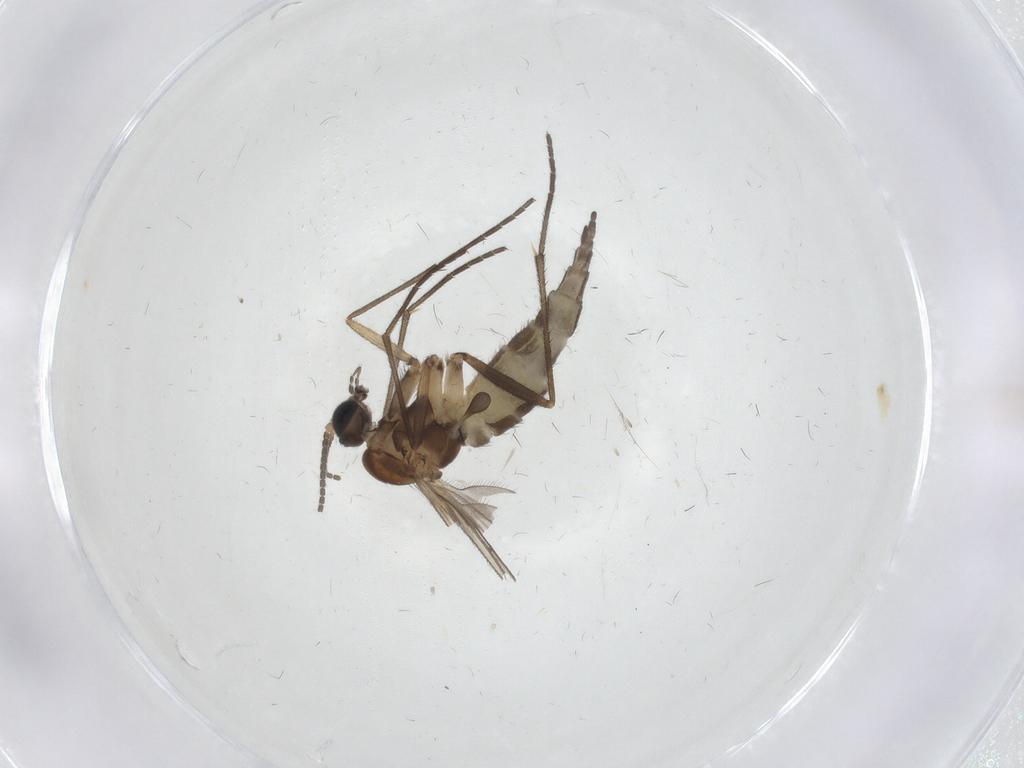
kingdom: Animalia
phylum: Arthropoda
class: Insecta
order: Diptera
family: Sciaridae
